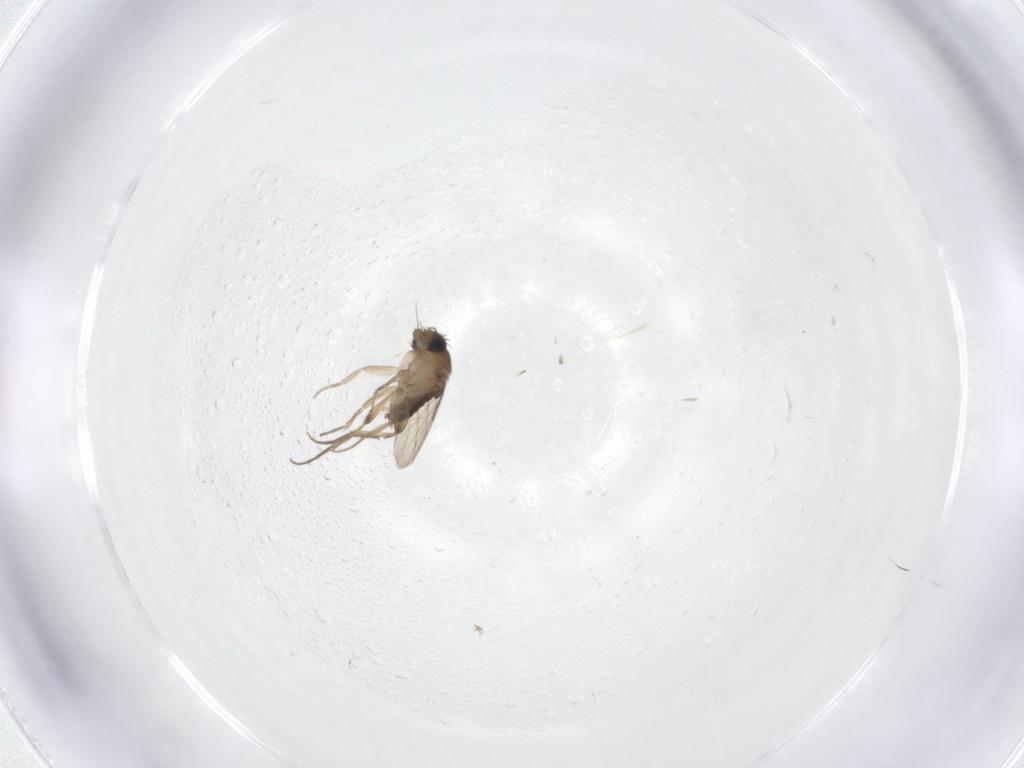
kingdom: Animalia
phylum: Arthropoda
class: Insecta
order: Diptera
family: Phoridae
